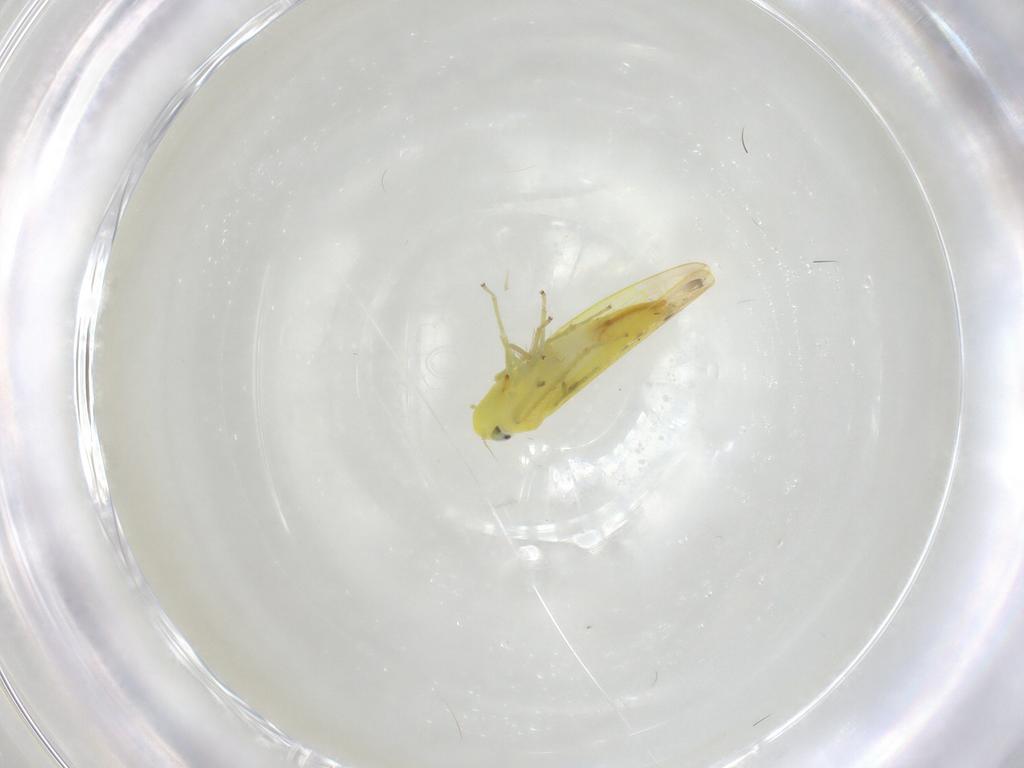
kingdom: Animalia
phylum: Arthropoda
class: Insecta
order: Hemiptera
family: Cicadellidae
